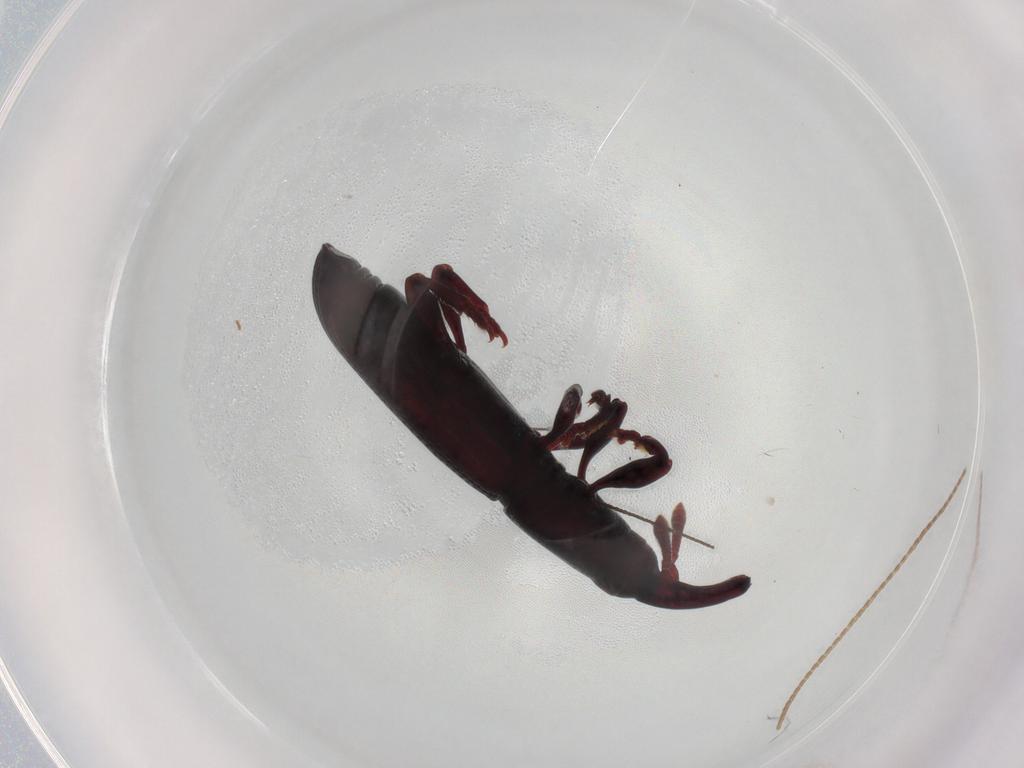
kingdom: Animalia
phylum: Arthropoda
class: Insecta
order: Coleoptera
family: Curculionidae
